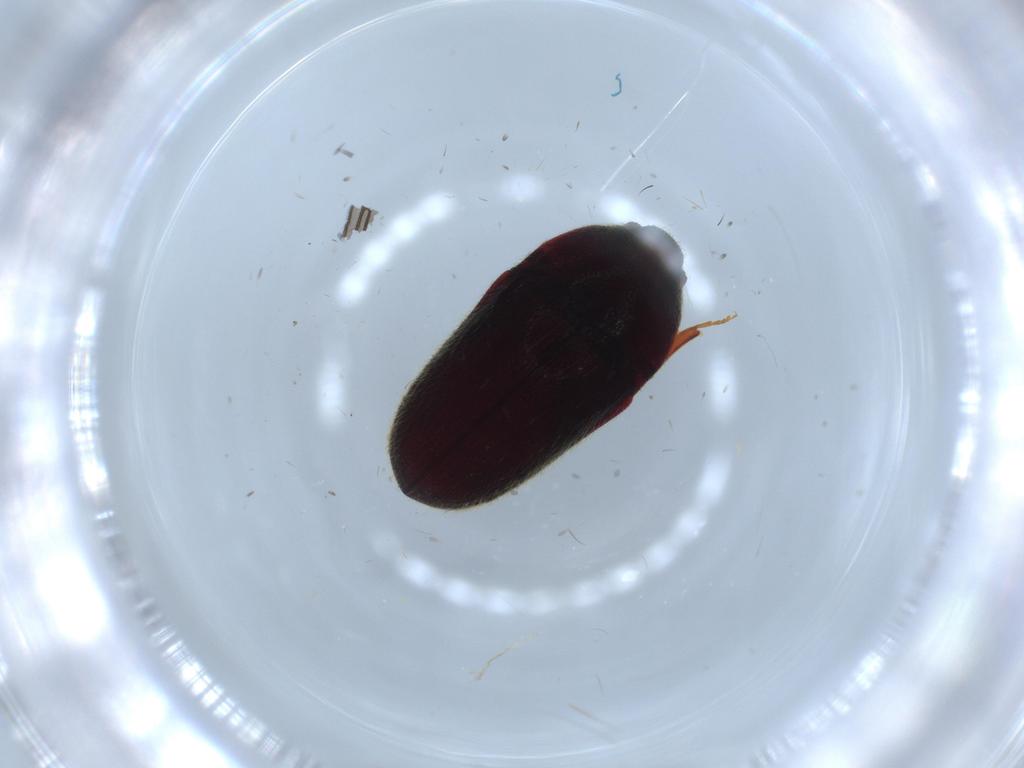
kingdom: Animalia
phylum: Arthropoda
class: Insecta
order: Coleoptera
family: Throscidae
